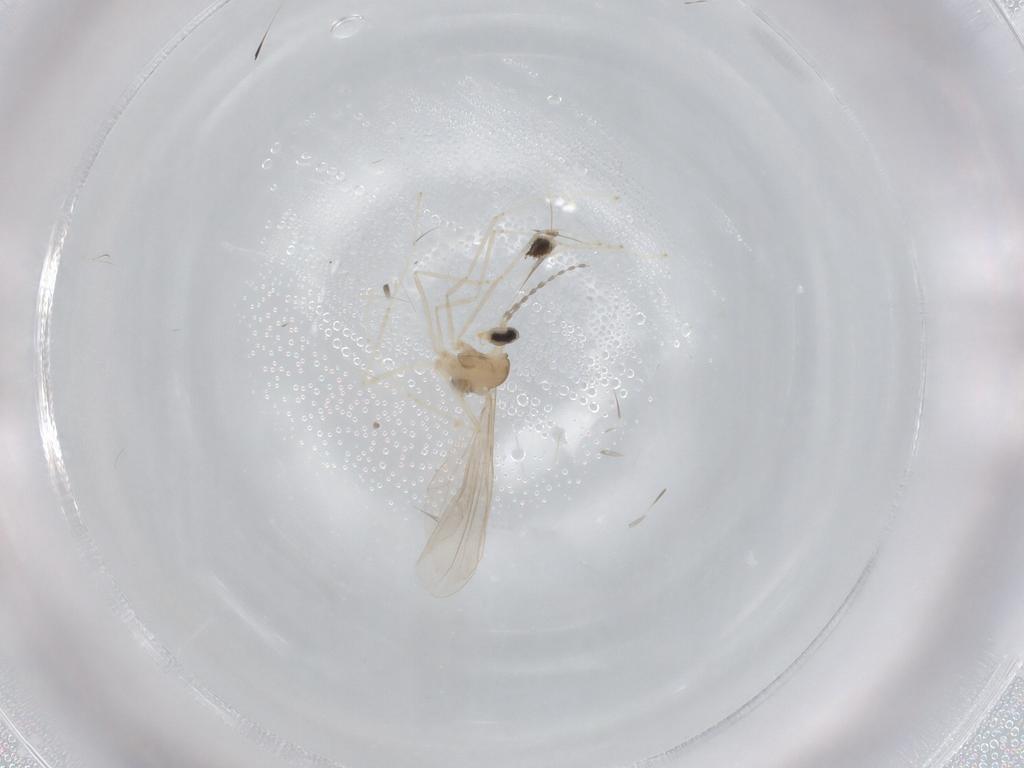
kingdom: Animalia
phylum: Arthropoda
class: Insecta
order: Diptera
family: Cecidomyiidae
